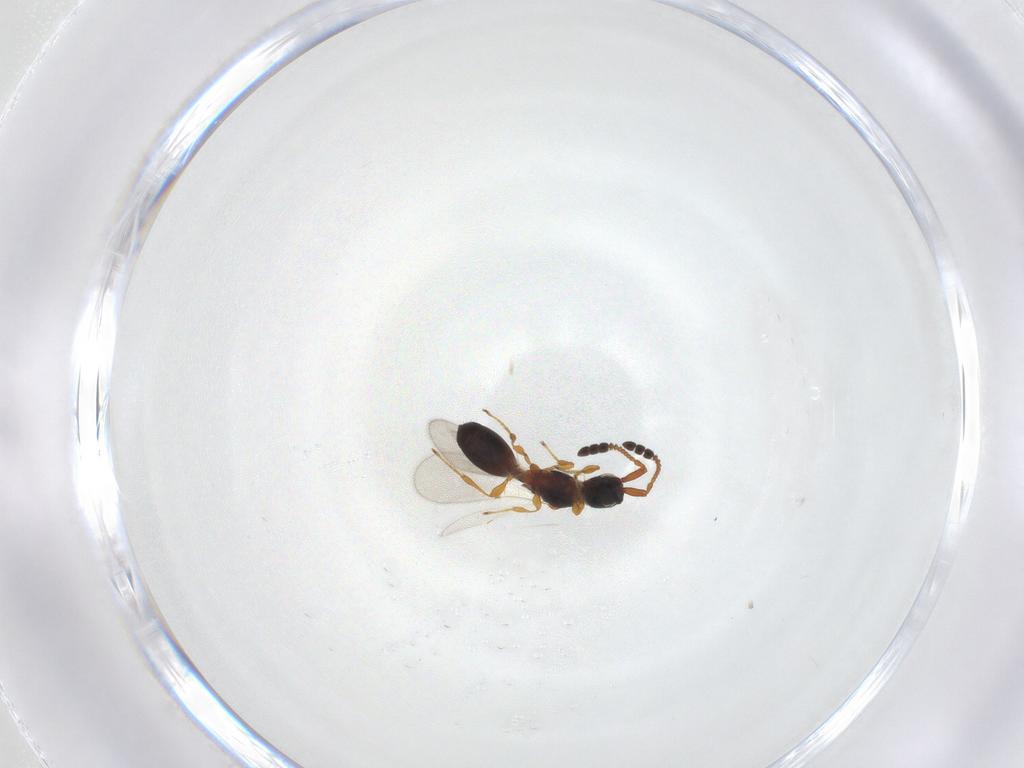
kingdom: Animalia
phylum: Arthropoda
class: Insecta
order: Hymenoptera
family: Diapriidae
